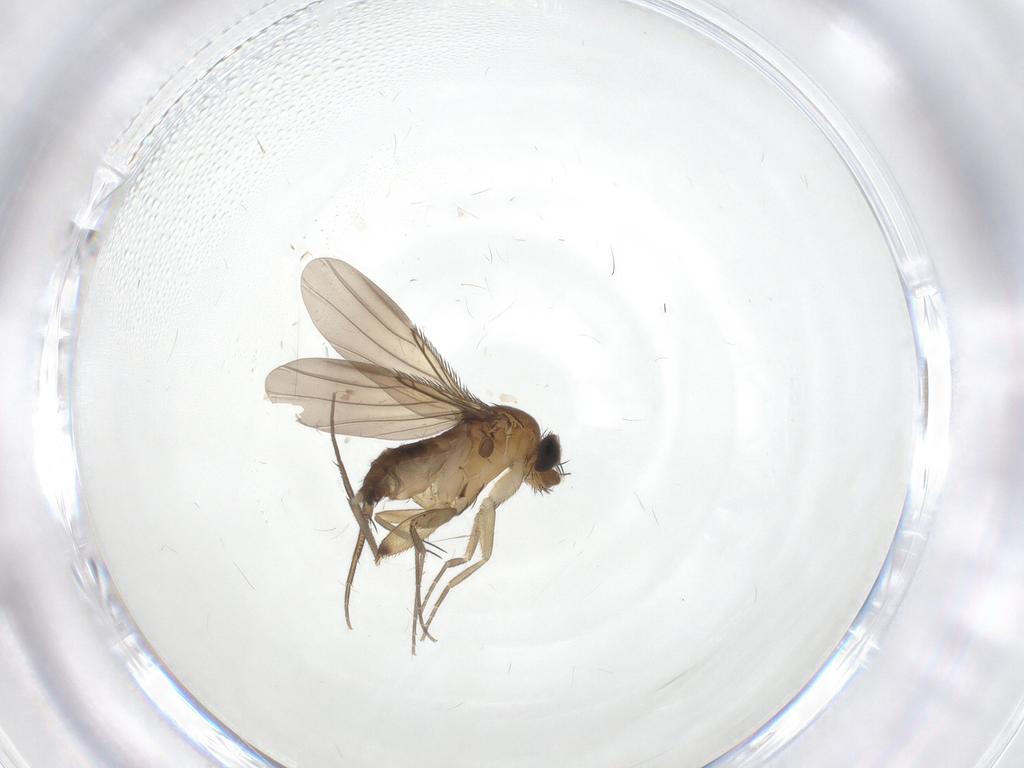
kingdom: Animalia
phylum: Arthropoda
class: Insecta
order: Diptera
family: Phoridae
